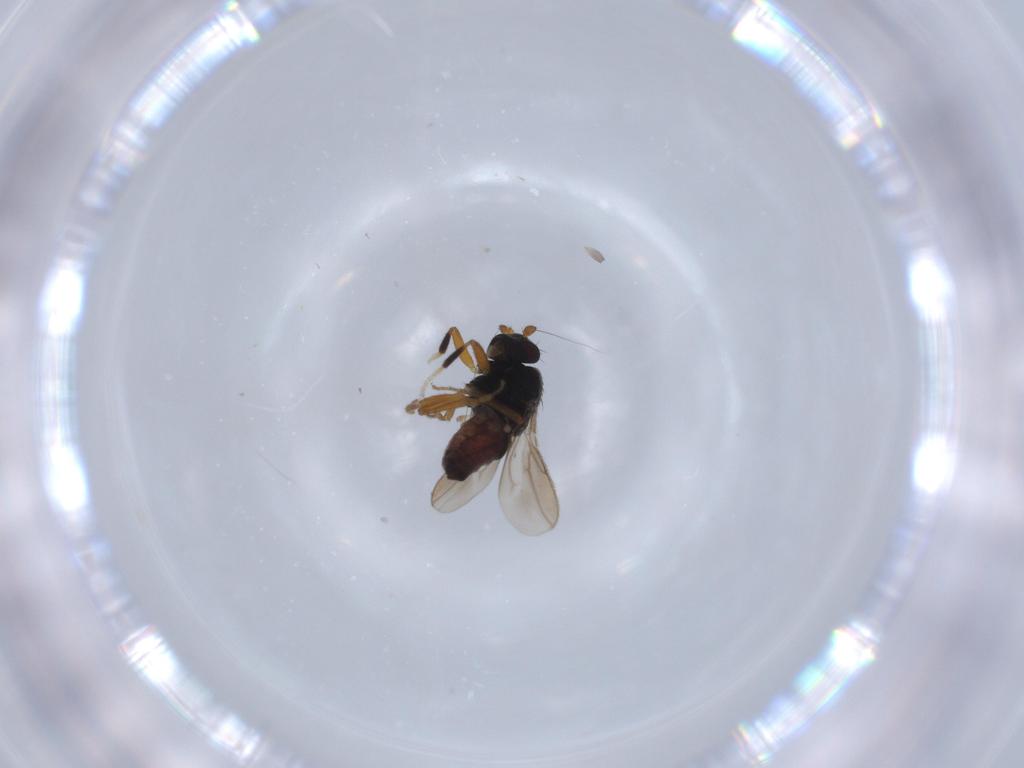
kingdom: Animalia
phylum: Arthropoda
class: Insecta
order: Diptera
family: Sphaeroceridae
